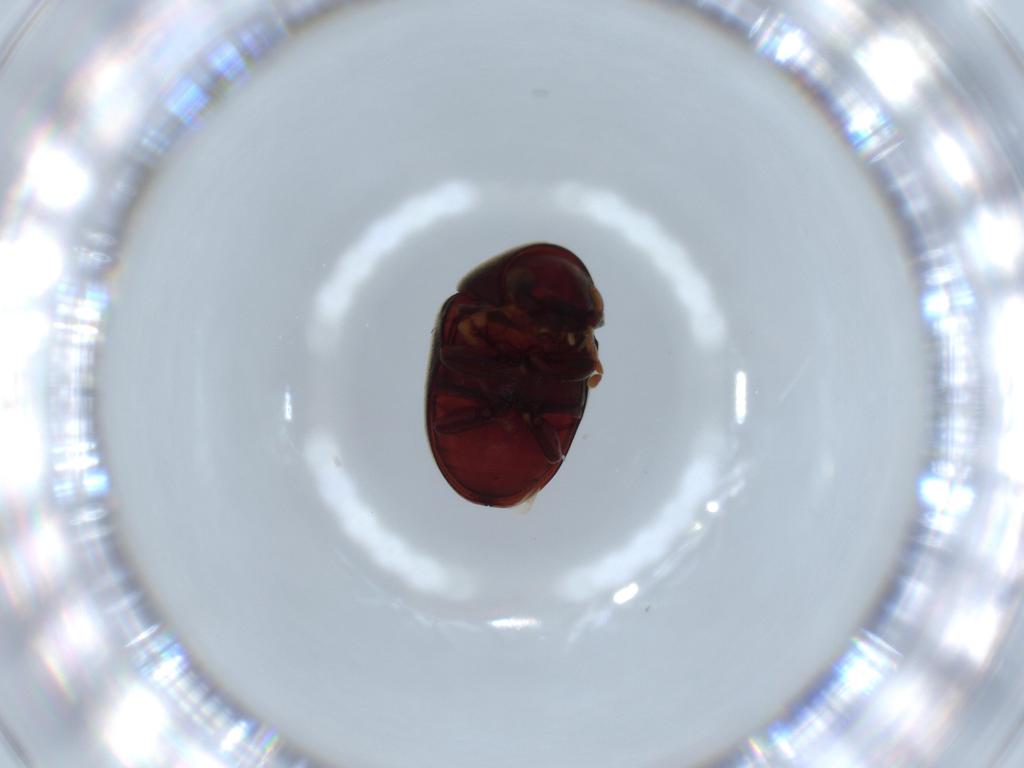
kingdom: Animalia
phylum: Arthropoda
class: Insecta
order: Coleoptera
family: Ptinidae
